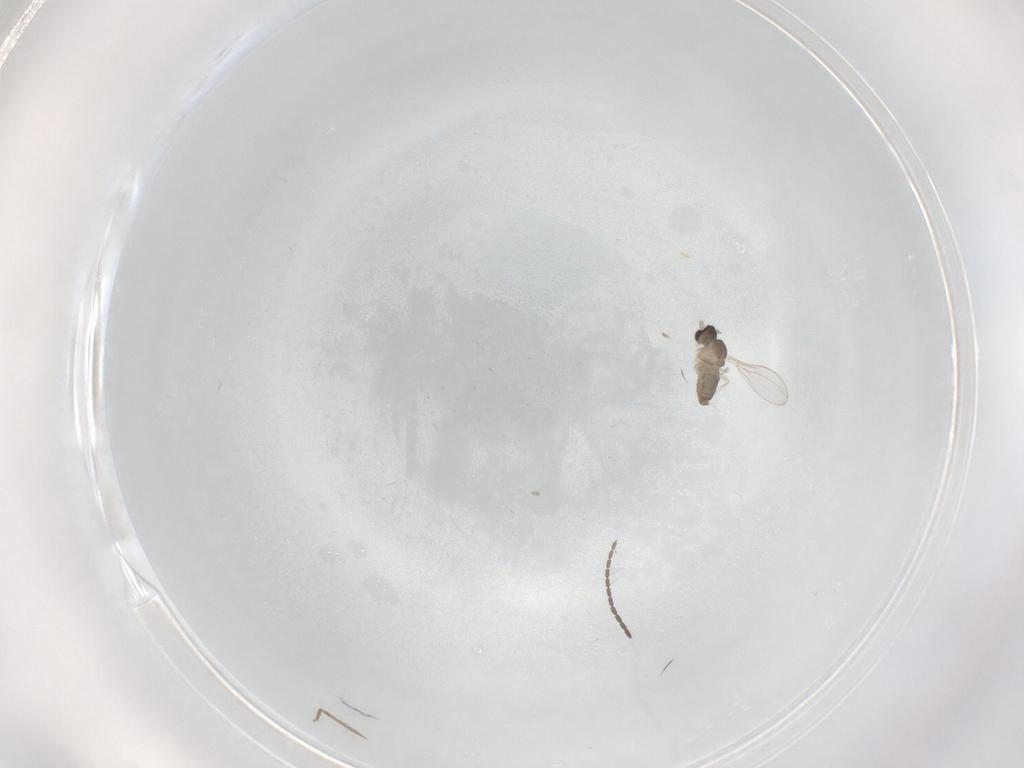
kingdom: Animalia
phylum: Arthropoda
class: Insecta
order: Diptera
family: Cecidomyiidae
